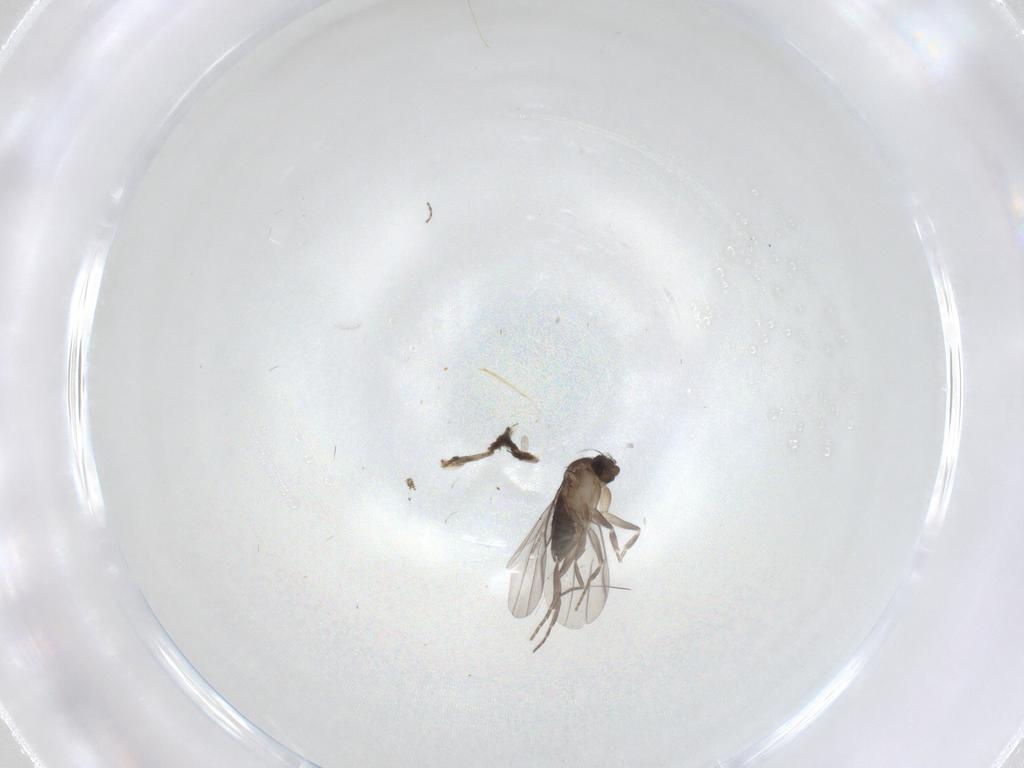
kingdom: Animalia
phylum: Arthropoda
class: Insecta
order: Diptera
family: Phoridae
